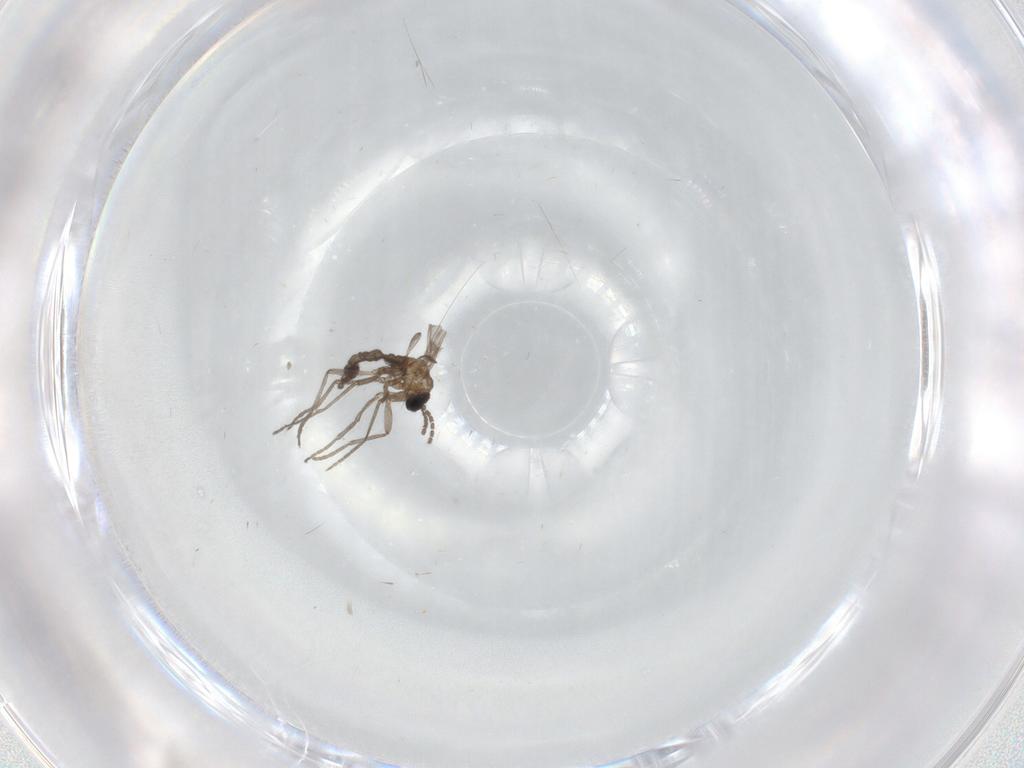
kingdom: Animalia
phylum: Arthropoda
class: Insecta
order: Diptera
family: Sciaridae
